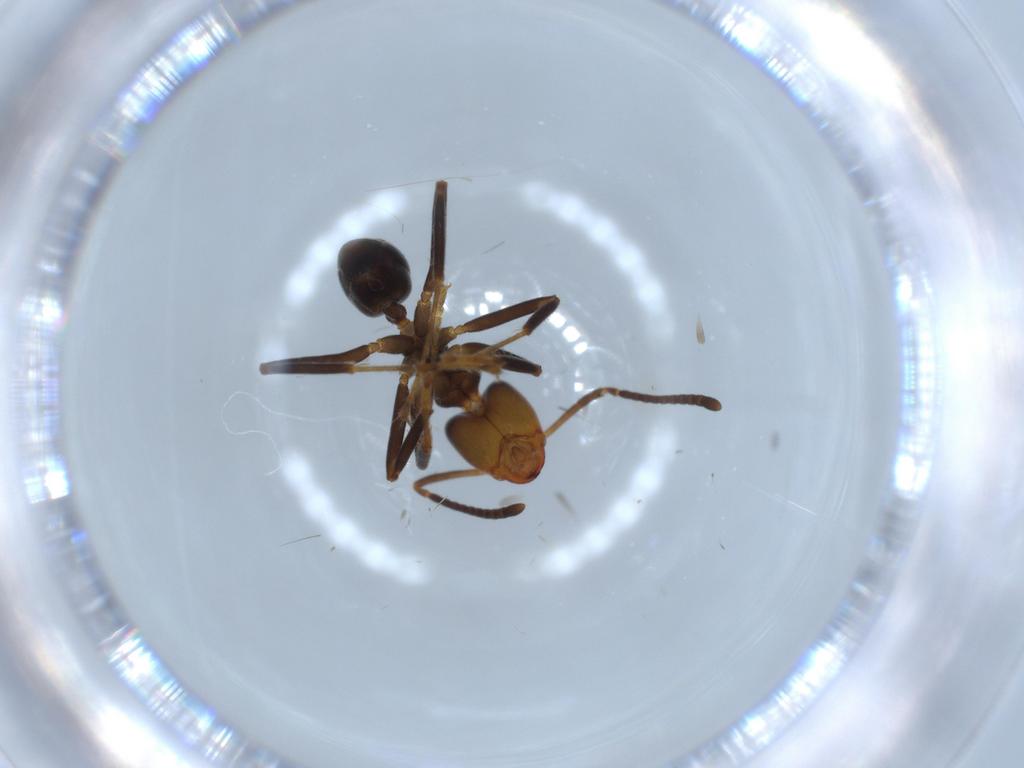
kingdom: Animalia
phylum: Arthropoda
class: Insecta
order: Hymenoptera
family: Formicidae
